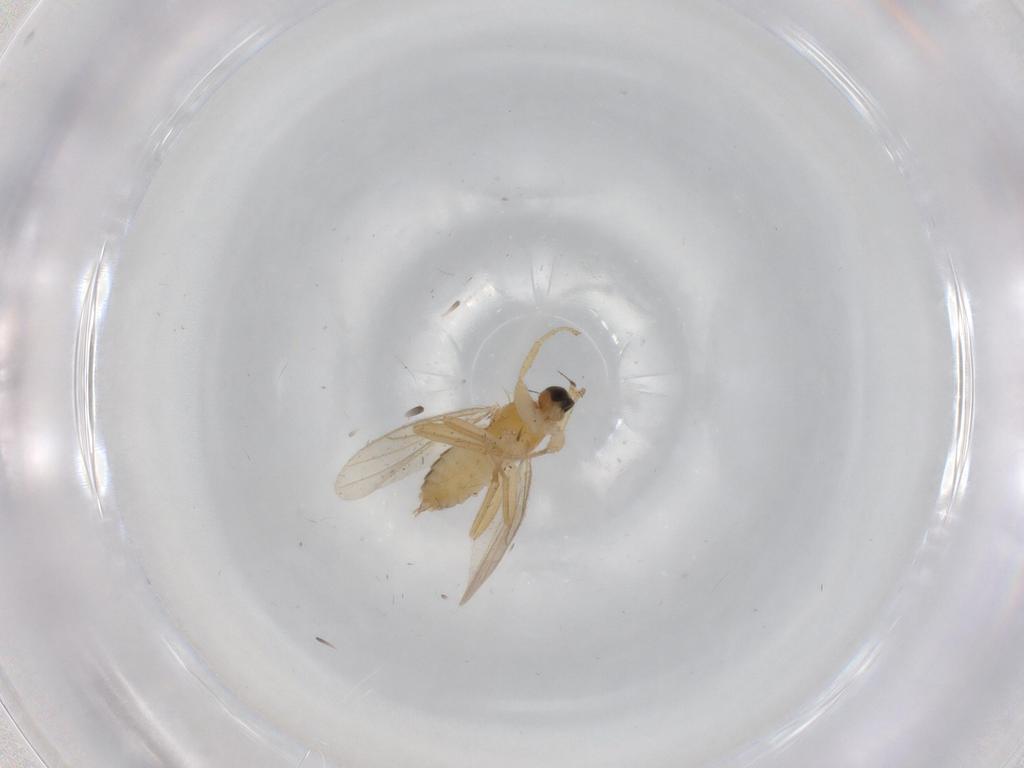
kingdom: Animalia
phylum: Arthropoda
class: Insecta
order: Diptera
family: Hybotidae
